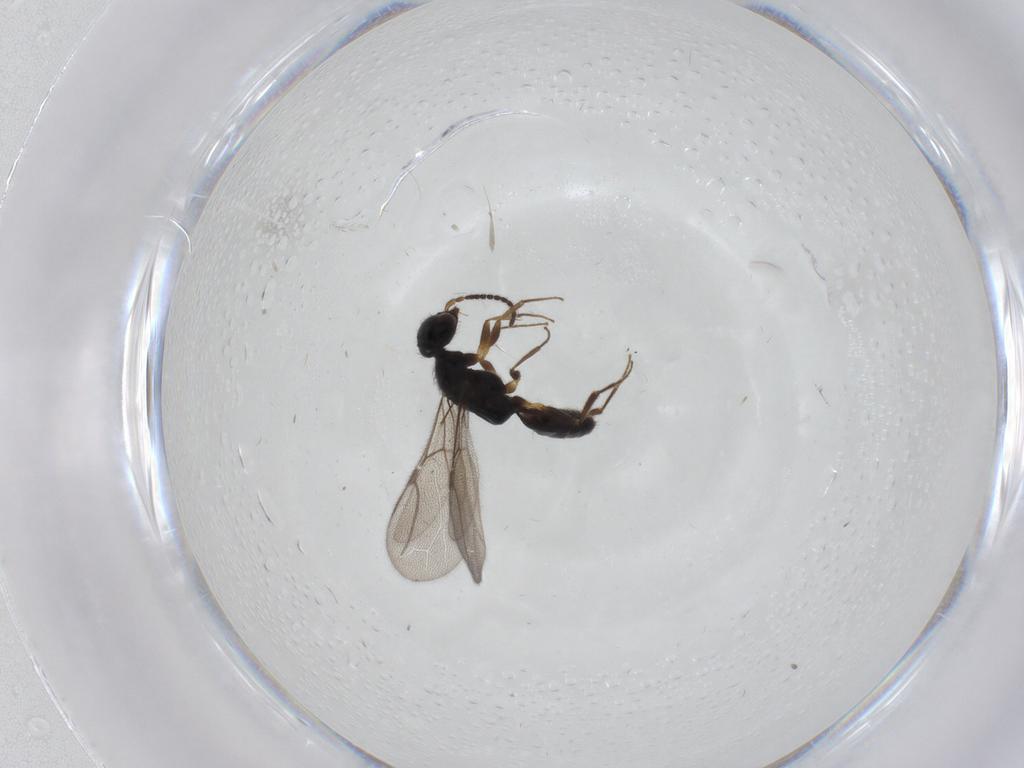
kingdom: Animalia
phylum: Arthropoda
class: Insecta
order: Hymenoptera
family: Bethylidae
